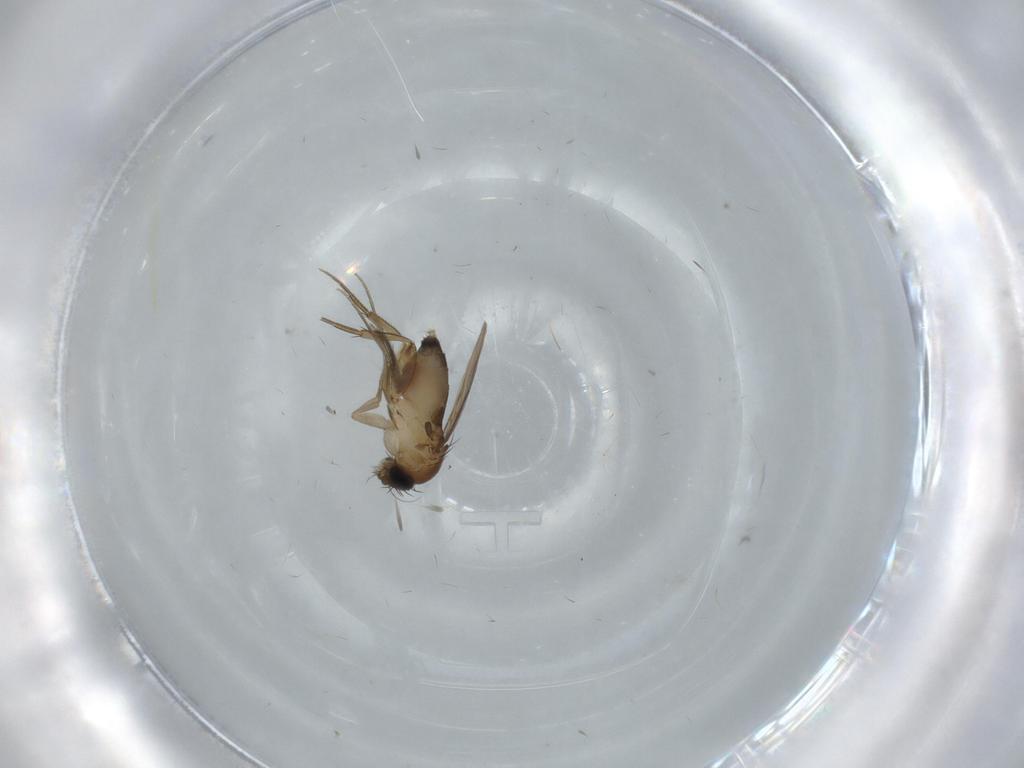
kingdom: Animalia
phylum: Arthropoda
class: Insecta
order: Diptera
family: Phoridae
